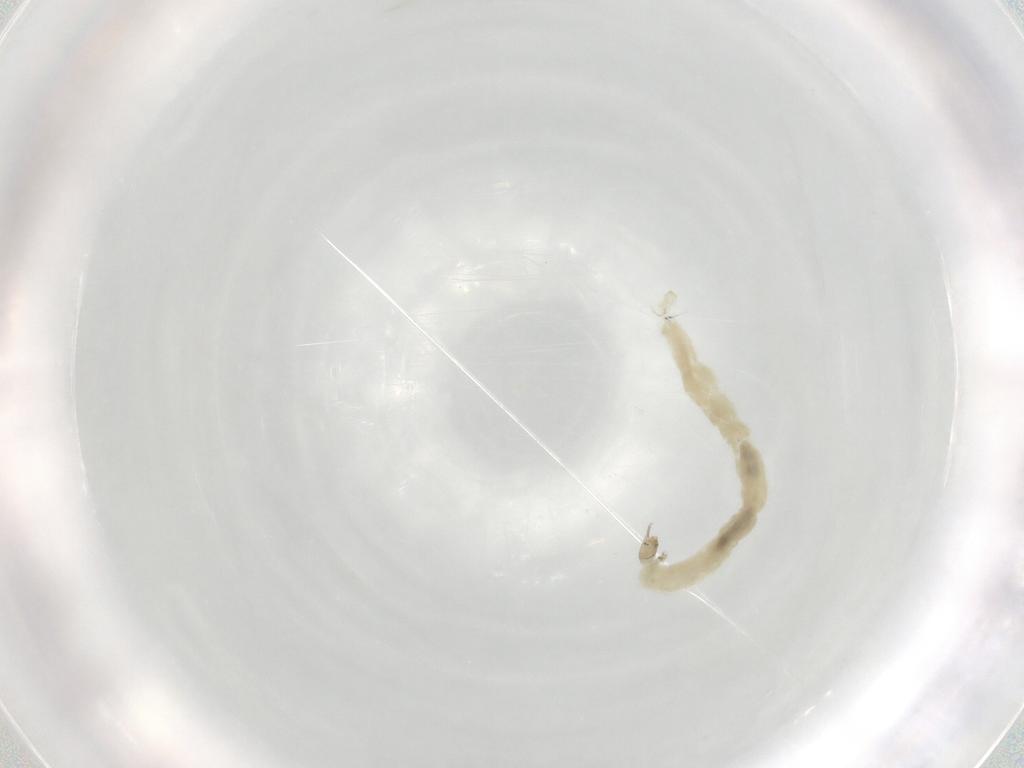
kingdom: Animalia
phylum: Arthropoda
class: Insecta
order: Diptera
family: Chironomidae
